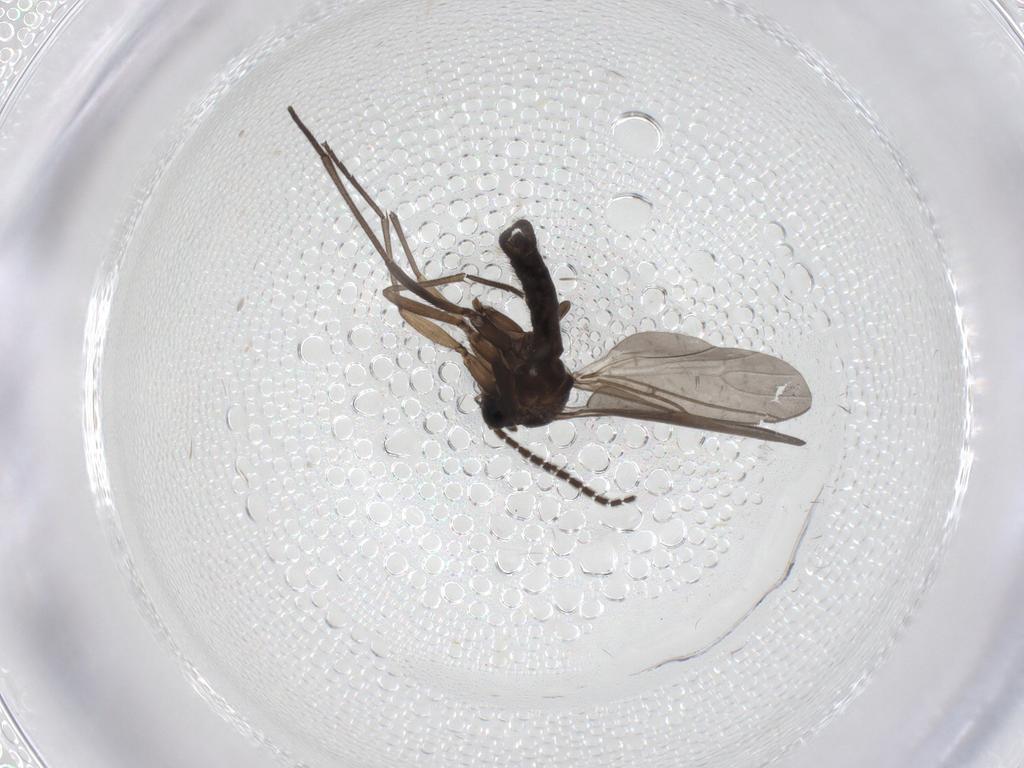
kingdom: Animalia
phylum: Arthropoda
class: Insecta
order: Diptera
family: Sciaridae
